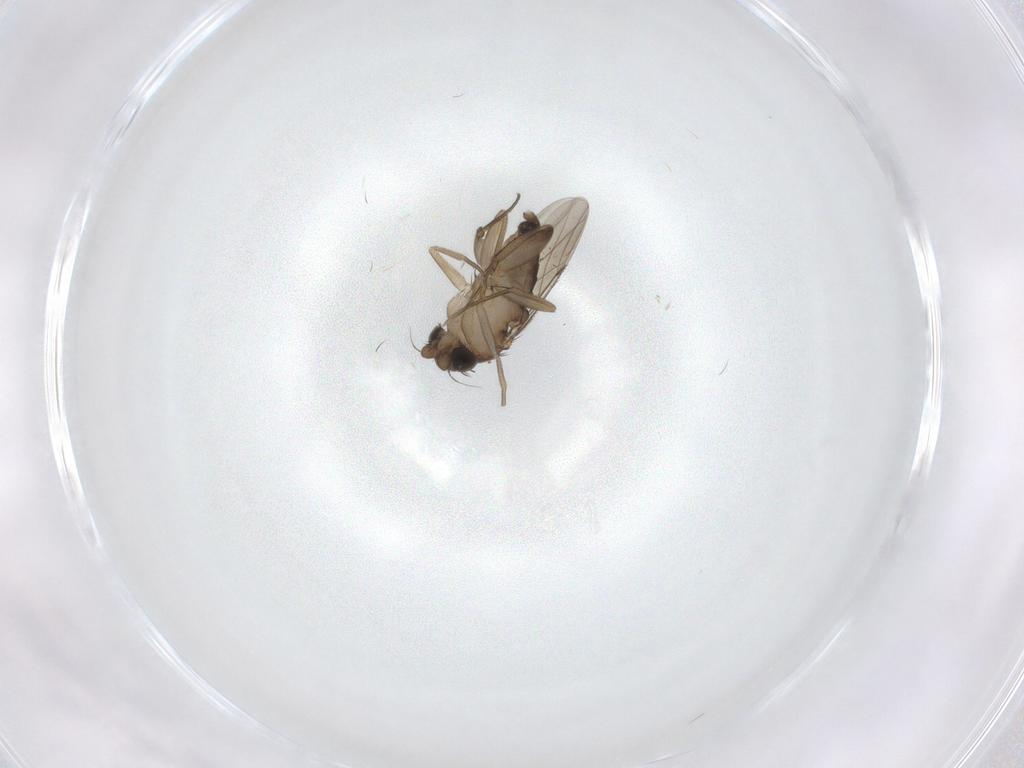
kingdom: Animalia
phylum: Arthropoda
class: Insecta
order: Diptera
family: Phoridae
